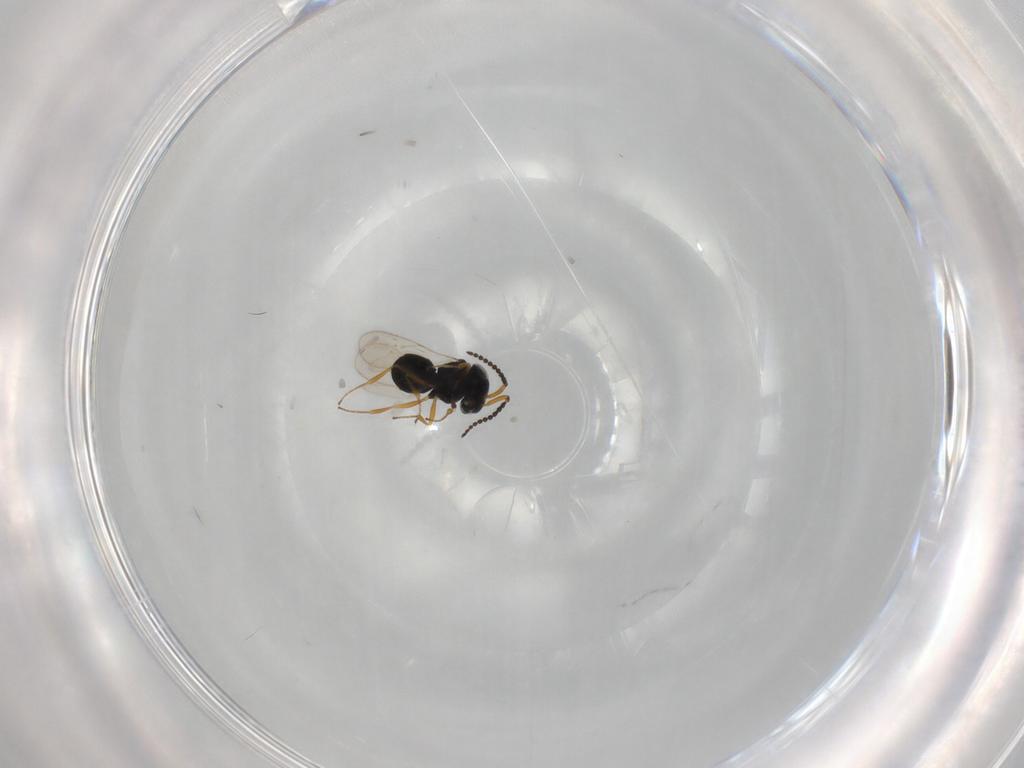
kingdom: Animalia
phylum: Arthropoda
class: Insecta
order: Hymenoptera
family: Scelionidae
